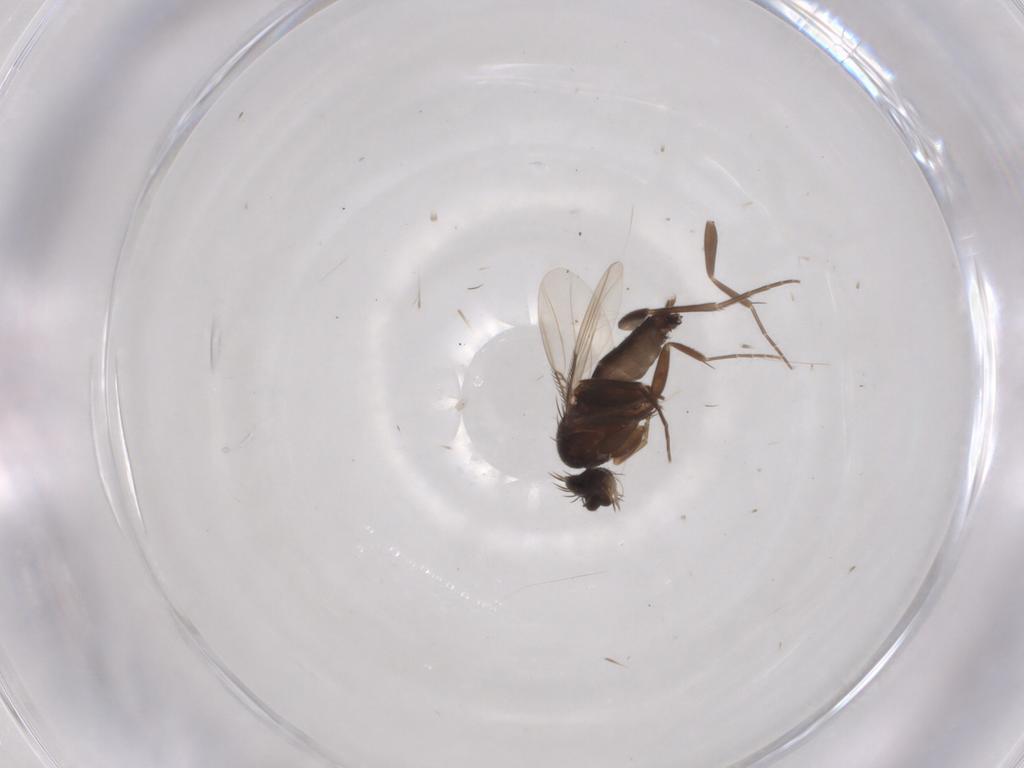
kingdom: Animalia
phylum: Arthropoda
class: Insecta
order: Diptera
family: Phoridae
